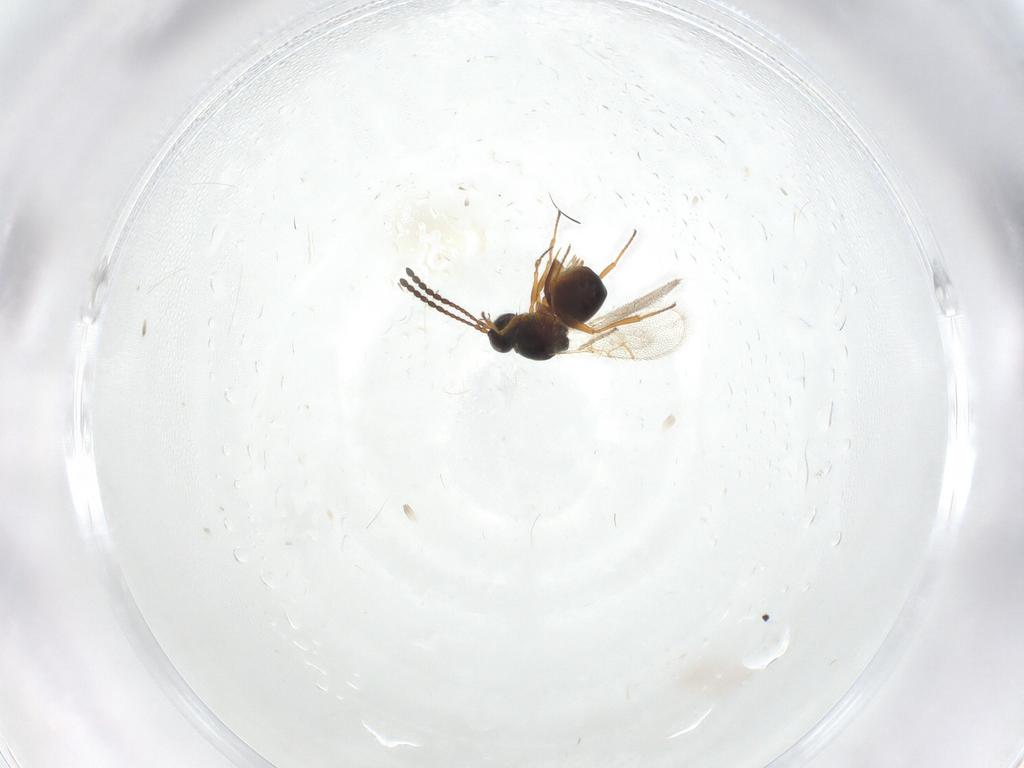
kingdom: Animalia
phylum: Arthropoda
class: Insecta
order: Hymenoptera
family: Figitidae
